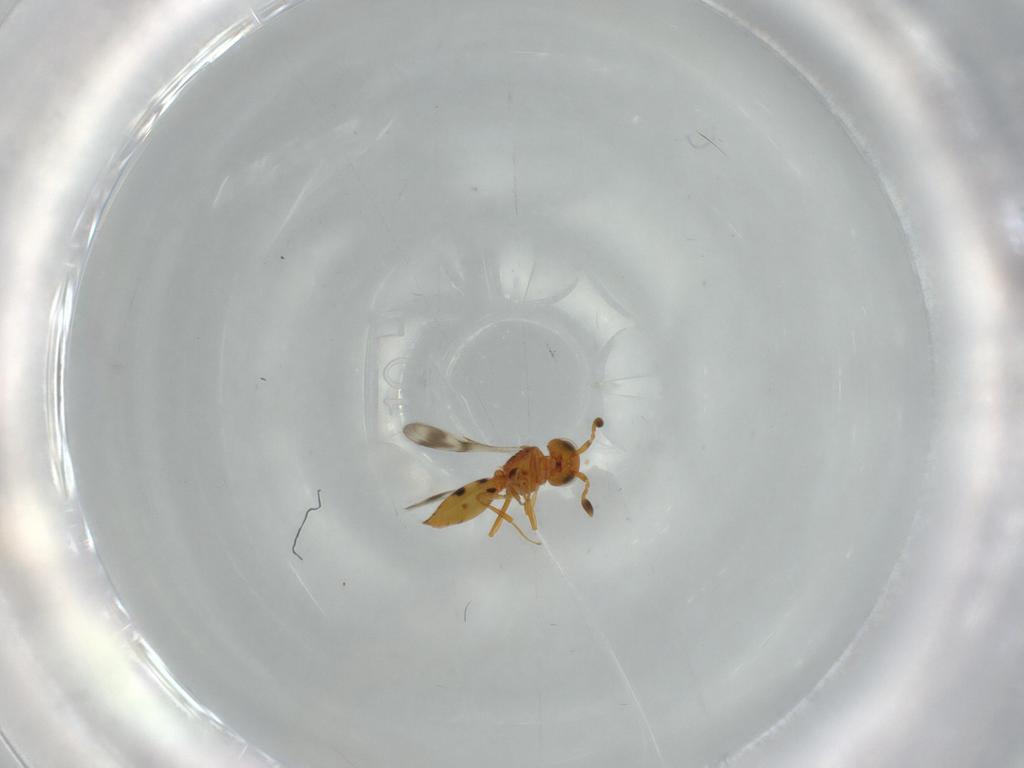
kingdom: Animalia
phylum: Arthropoda
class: Insecta
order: Hymenoptera
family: Scelionidae
